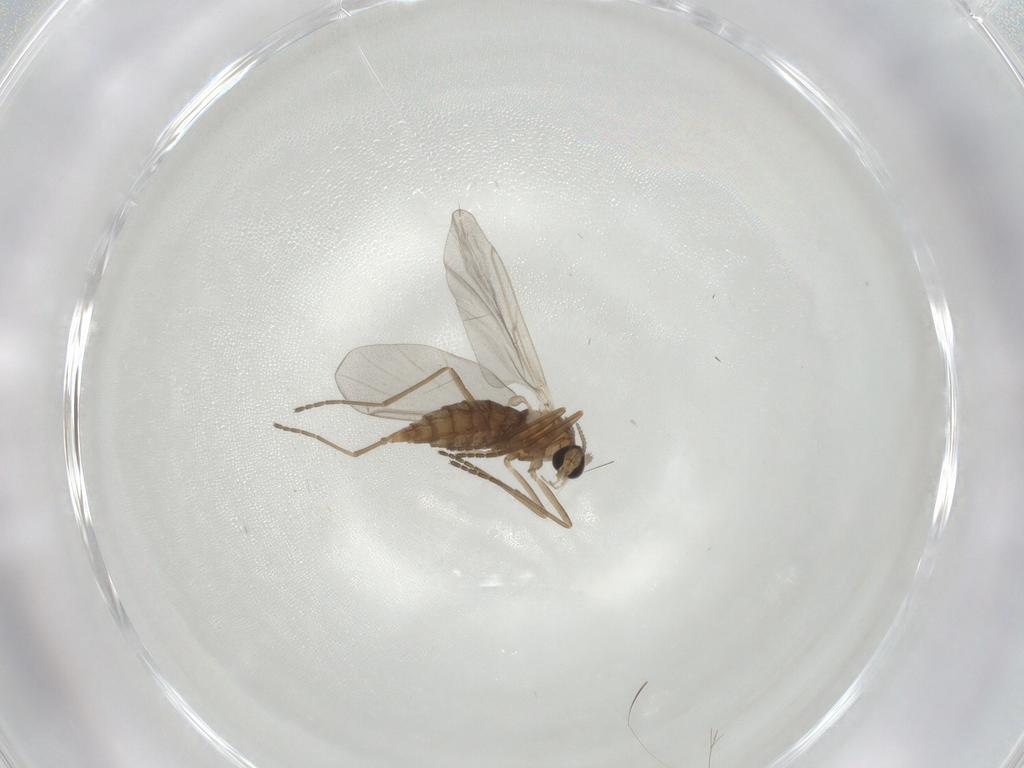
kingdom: Animalia
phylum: Arthropoda
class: Insecta
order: Diptera
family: Cecidomyiidae
